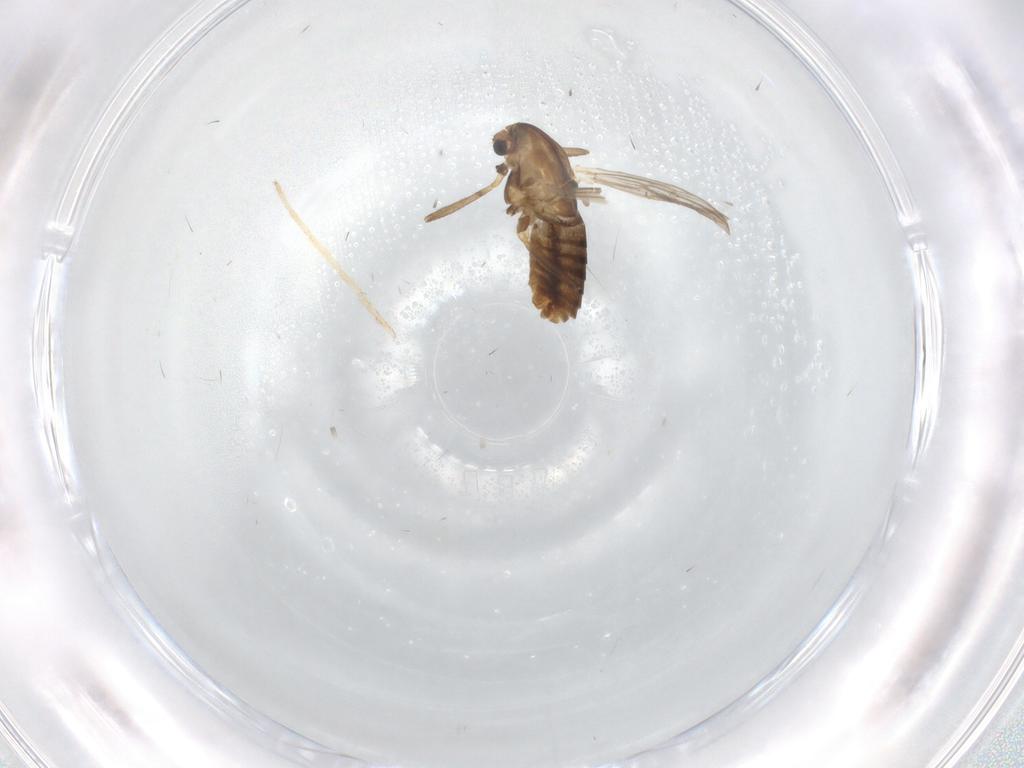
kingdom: Animalia
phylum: Arthropoda
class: Insecta
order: Diptera
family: Chironomidae
